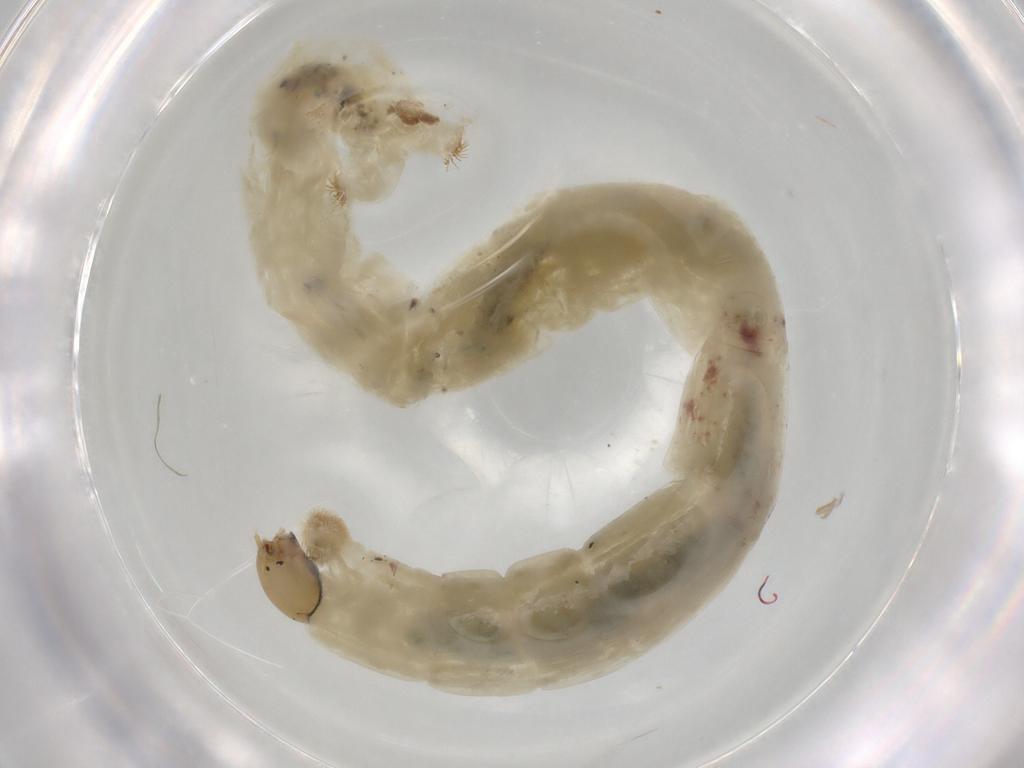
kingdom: Animalia
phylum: Arthropoda
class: Insecta
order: Diptera
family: Chironomidae
